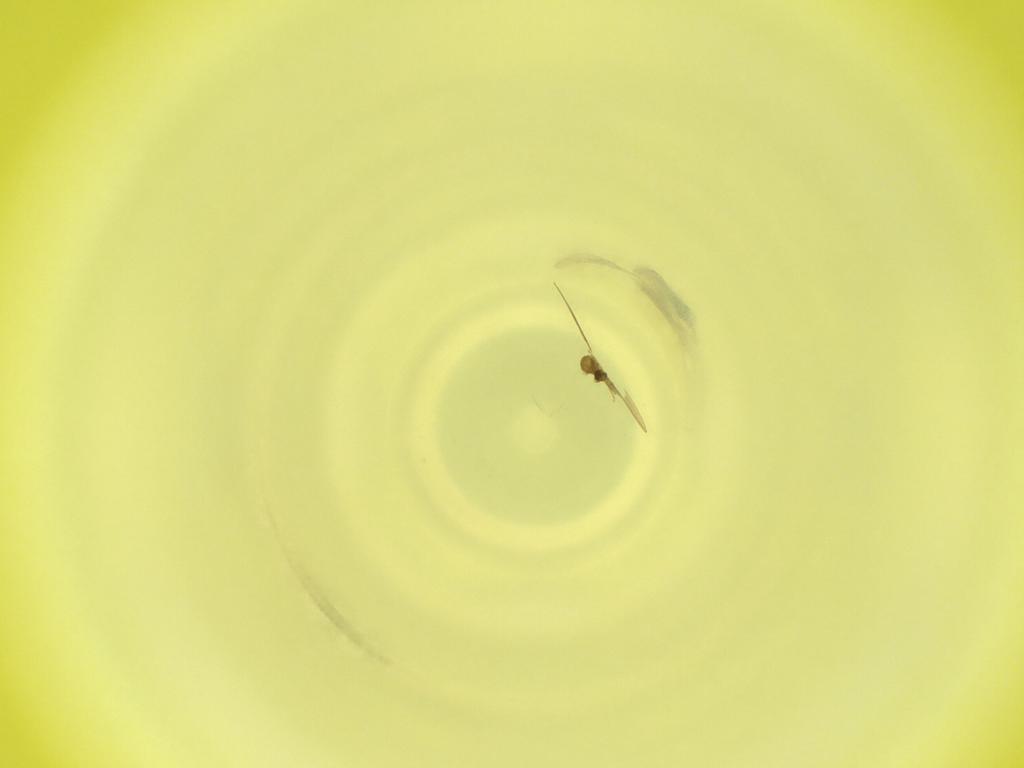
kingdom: Animalia
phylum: Arthropoda
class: Insecta
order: Diptera
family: Cecidomyiidae
